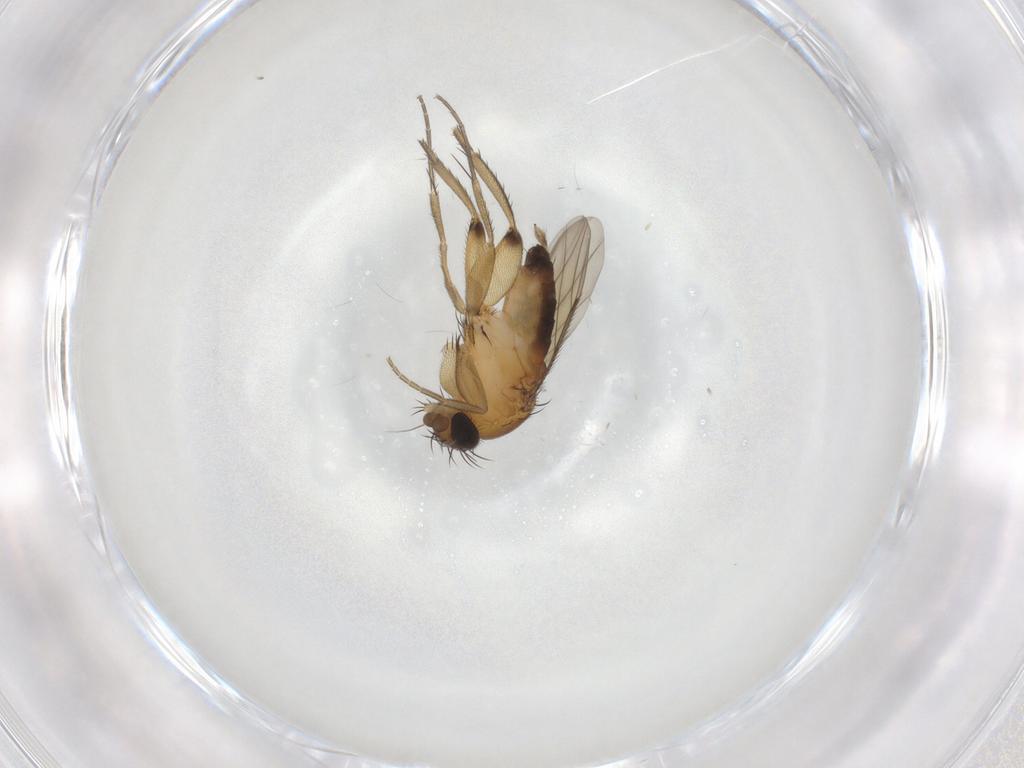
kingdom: Animalia
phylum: Arthropoda
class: Insecta
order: Diptera
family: Phoridae
